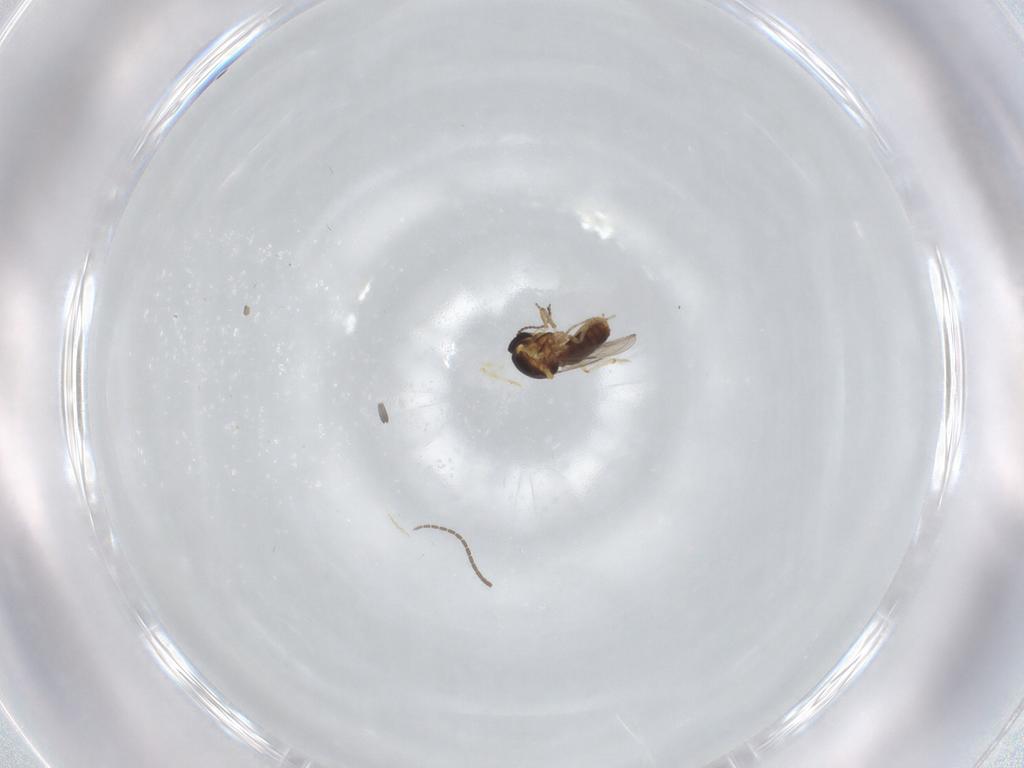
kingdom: Animalia
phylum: Arthropoda
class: Insecta
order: Diptera
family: Ceratopogonidae
